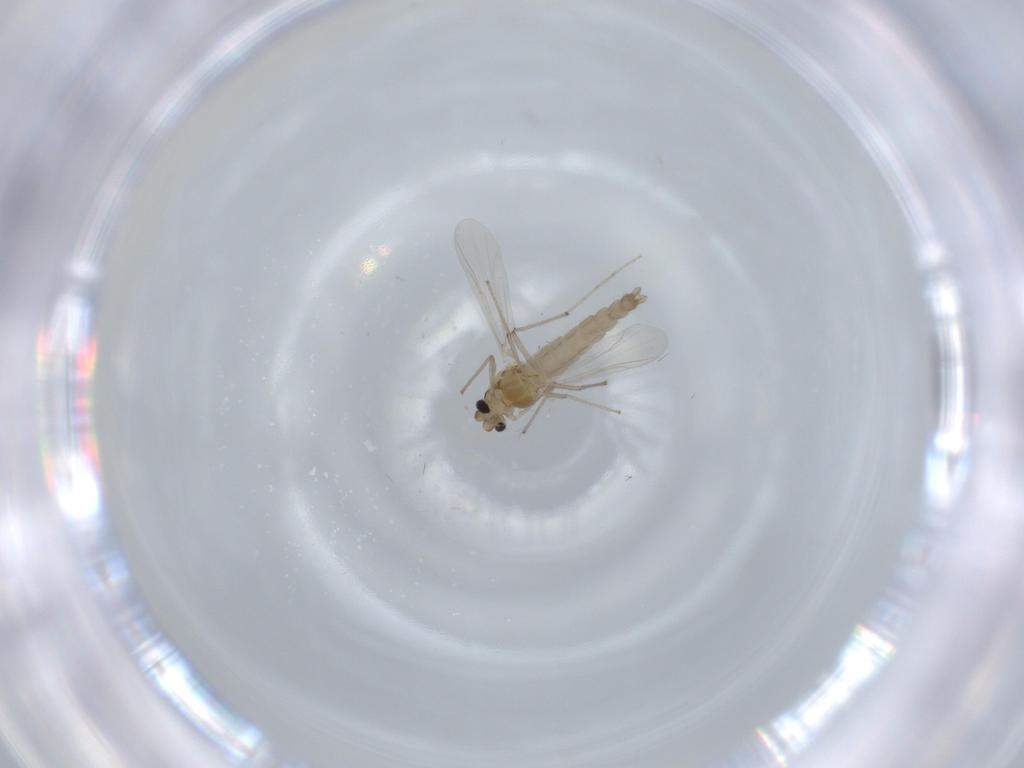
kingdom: Animalia
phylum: Arthropoda
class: Insecta
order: Diptera
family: Chironomidae
